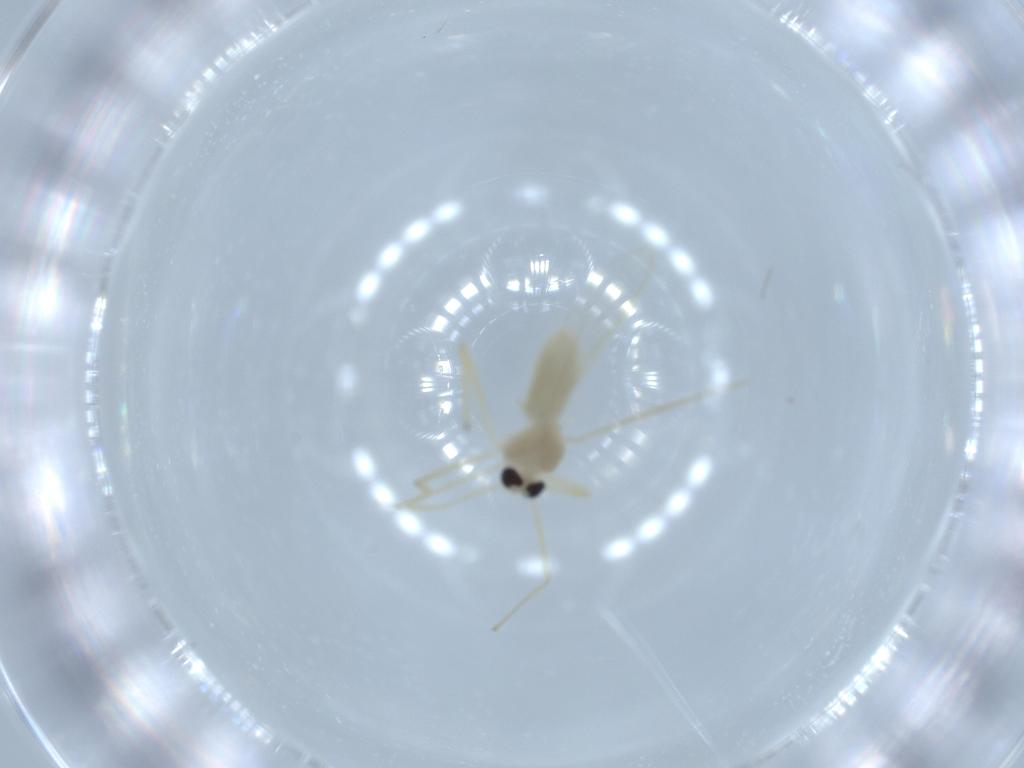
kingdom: Animalia
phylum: Arthropoda
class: Insecta
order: Diptera
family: Chironomidae
